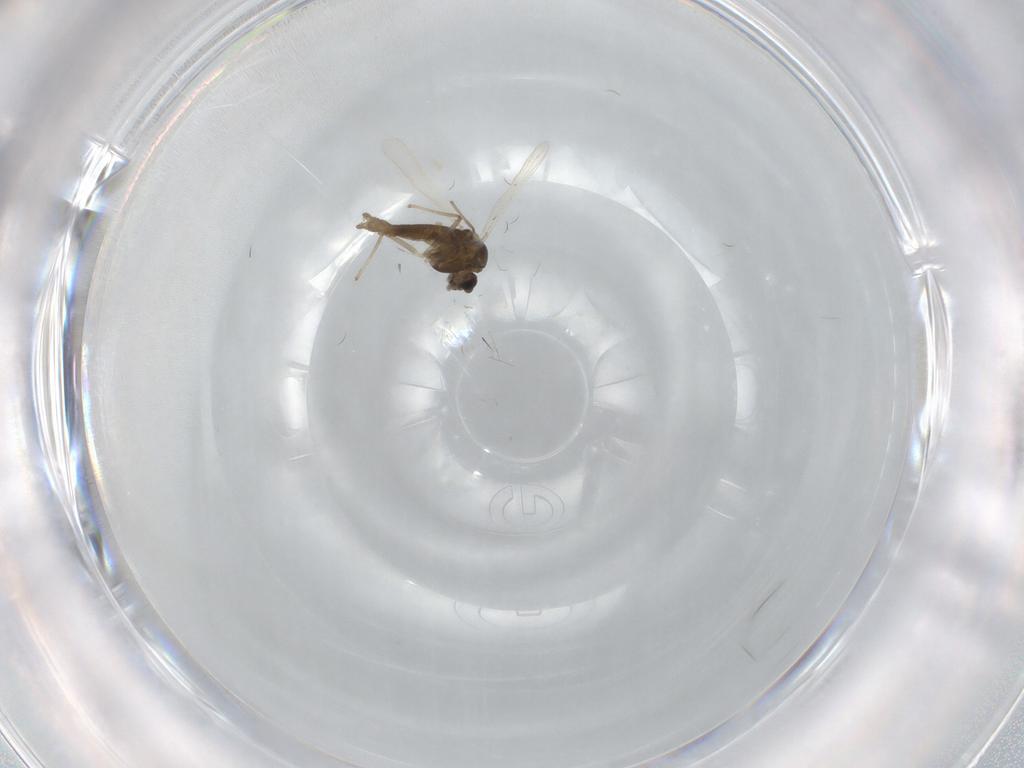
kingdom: Animalia
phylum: Arthropoda
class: Insecta
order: Diptera
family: Chironomidae
